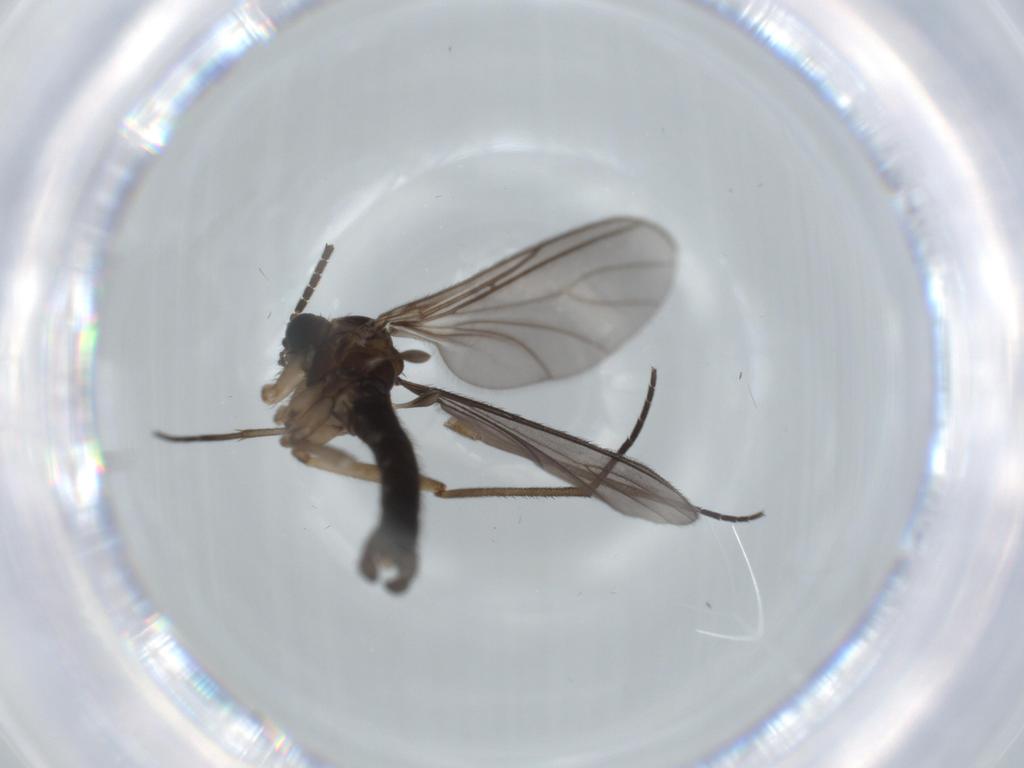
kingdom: Animalia
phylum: Arthropoda
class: Insecta
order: Diptera
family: Sciaridae
